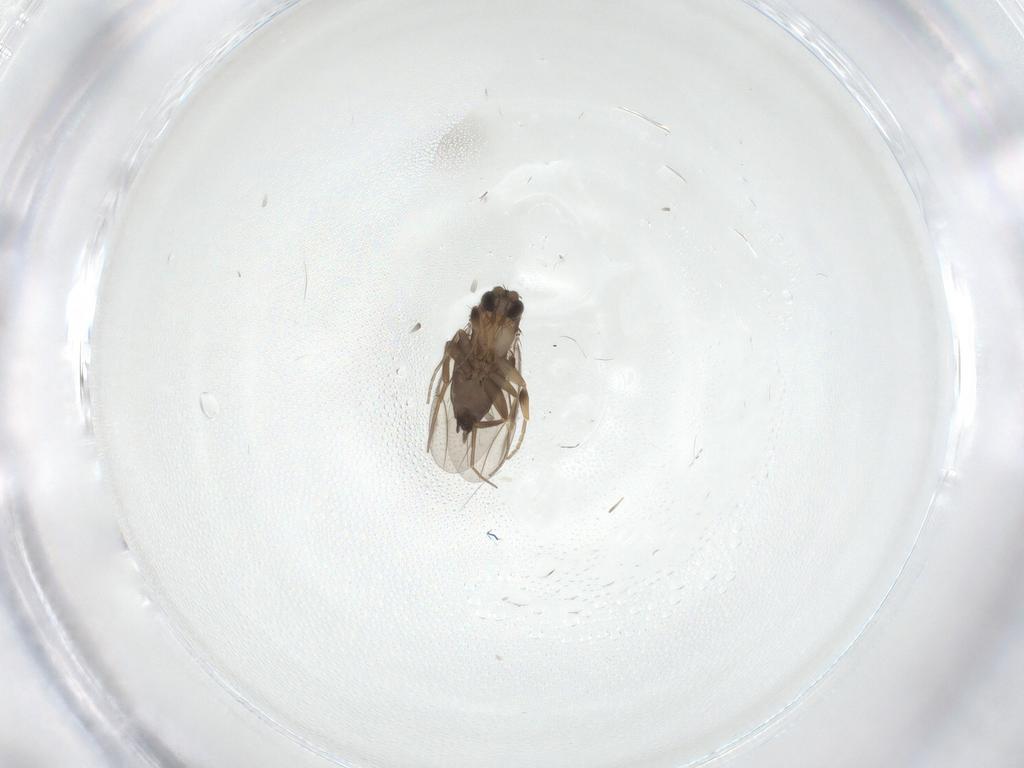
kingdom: Animalia
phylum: Arthropoda
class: Insecta
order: Diptera
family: Chironomidae
